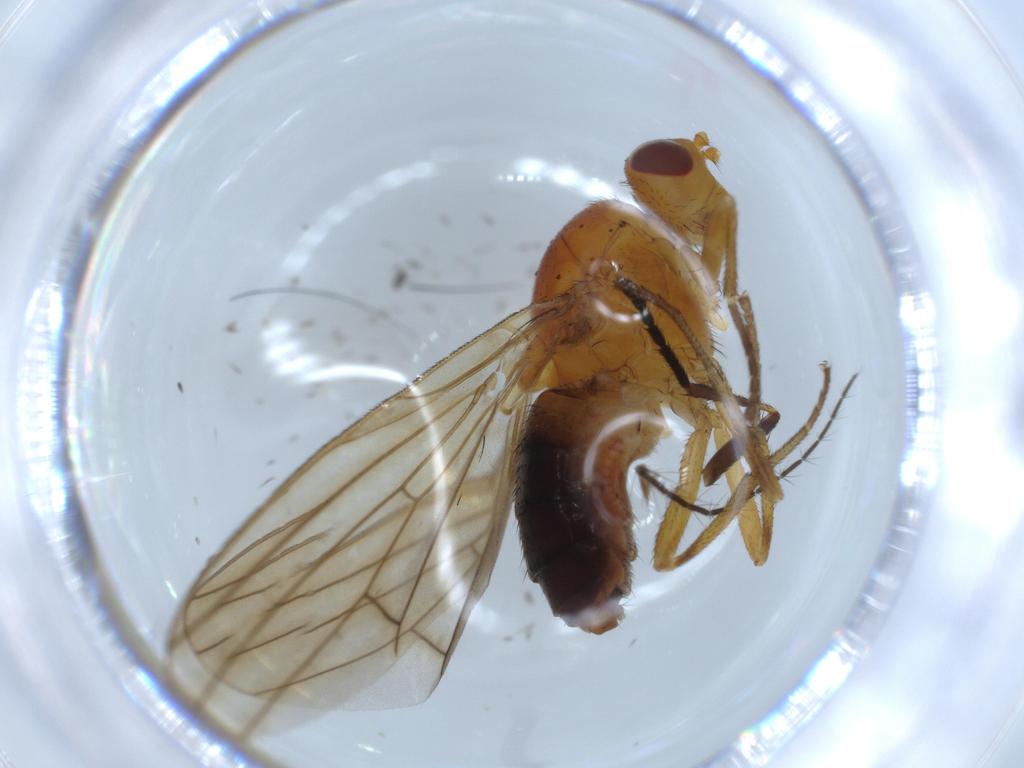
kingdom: Animalia
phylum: Arthropoda
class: Insecta
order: Diptera
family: Lauxaniidae
